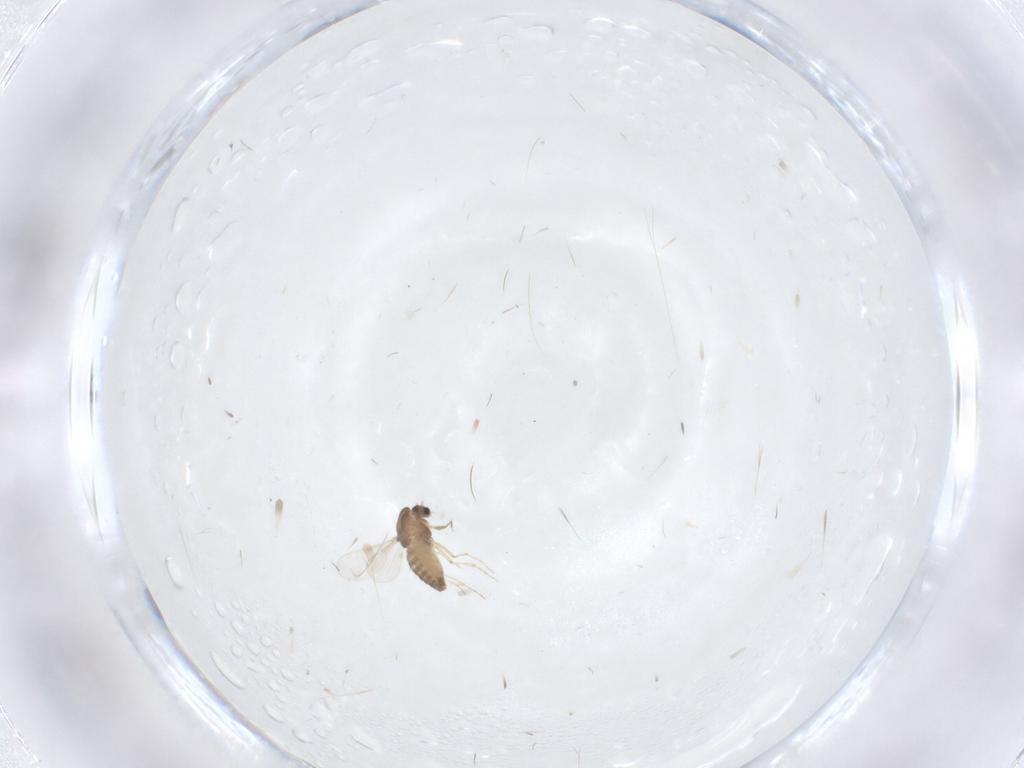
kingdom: Animalia
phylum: Arthropoda
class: Insecta
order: Diptera
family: Chironomidae
